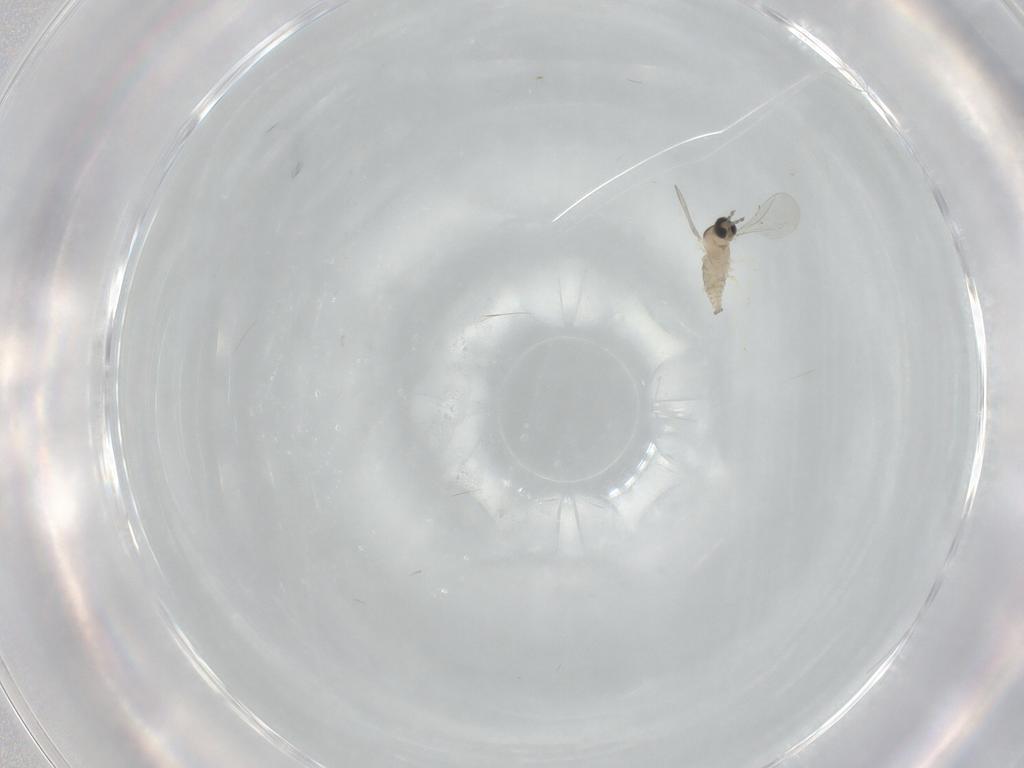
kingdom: Animalia
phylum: Arthropoda
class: Insecta
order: Diptera
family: Cecidomyiidae
